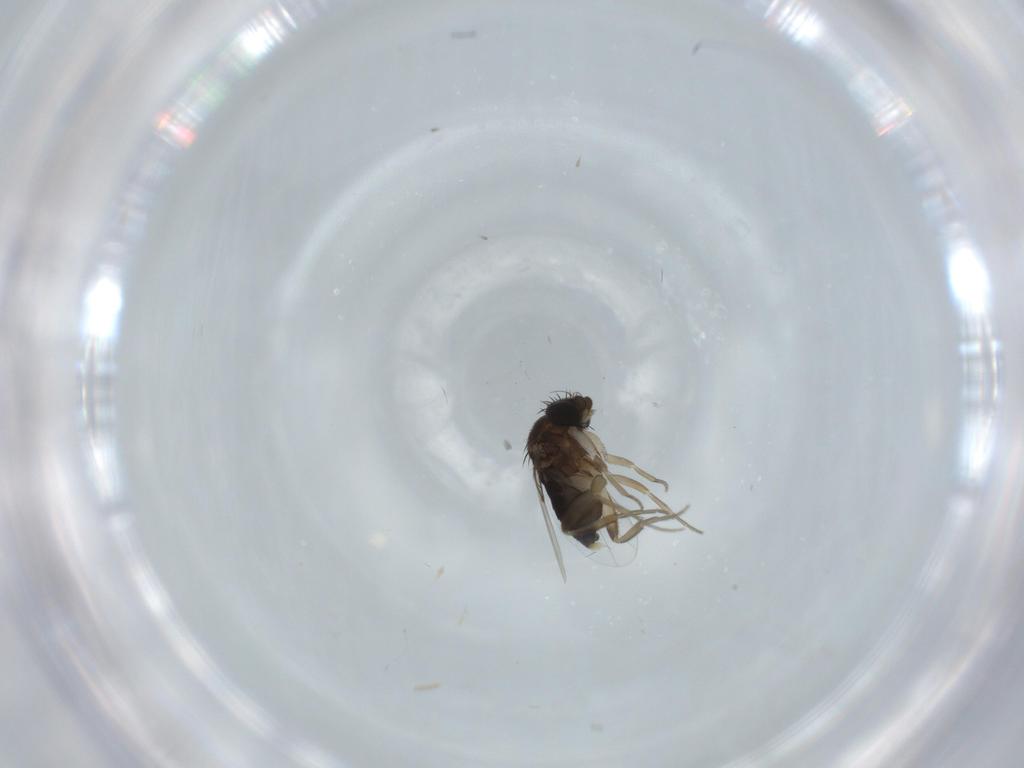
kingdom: Animalia
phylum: Arthropoda
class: Insecta
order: Diptera
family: Phoridae
